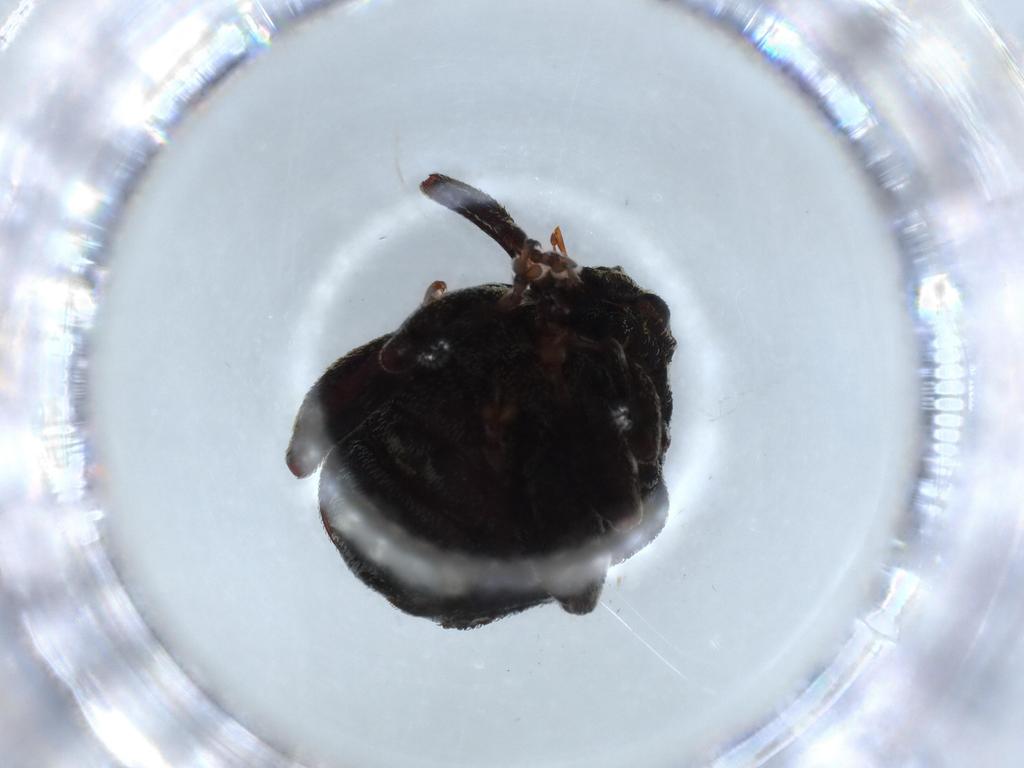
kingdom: Animalia
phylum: Arthropoda
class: Insecta
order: Coleoptera
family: Curculionidae
